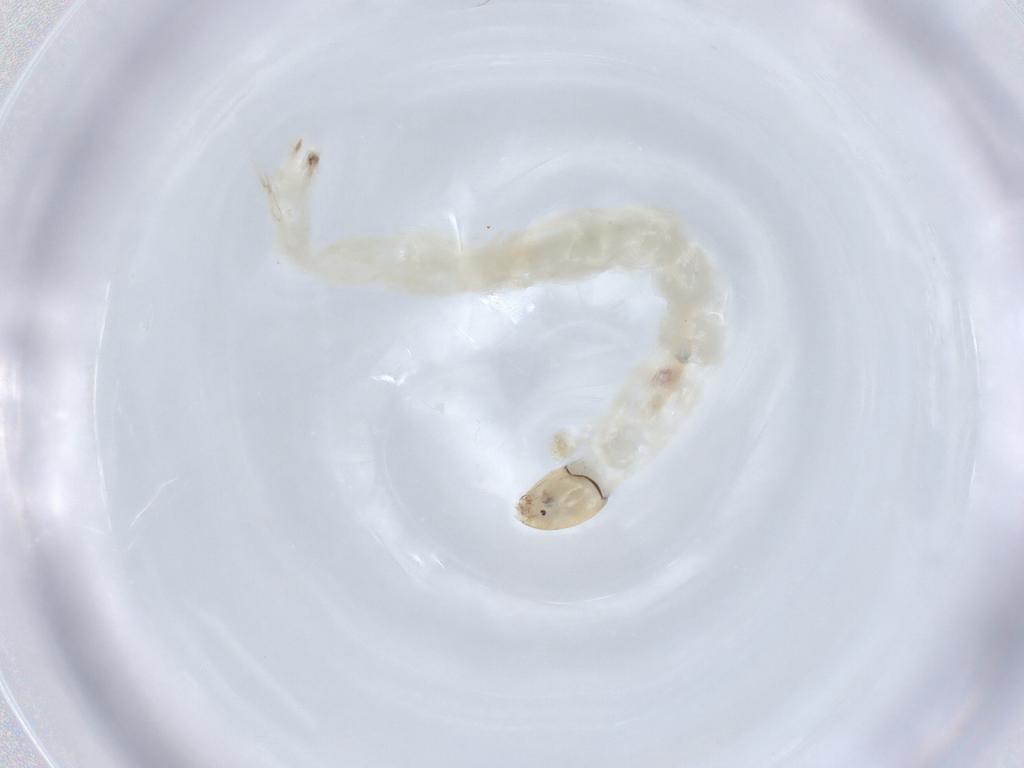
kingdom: Animalia
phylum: Arthropoda
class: Insecta
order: Diptera
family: Chironomidae
